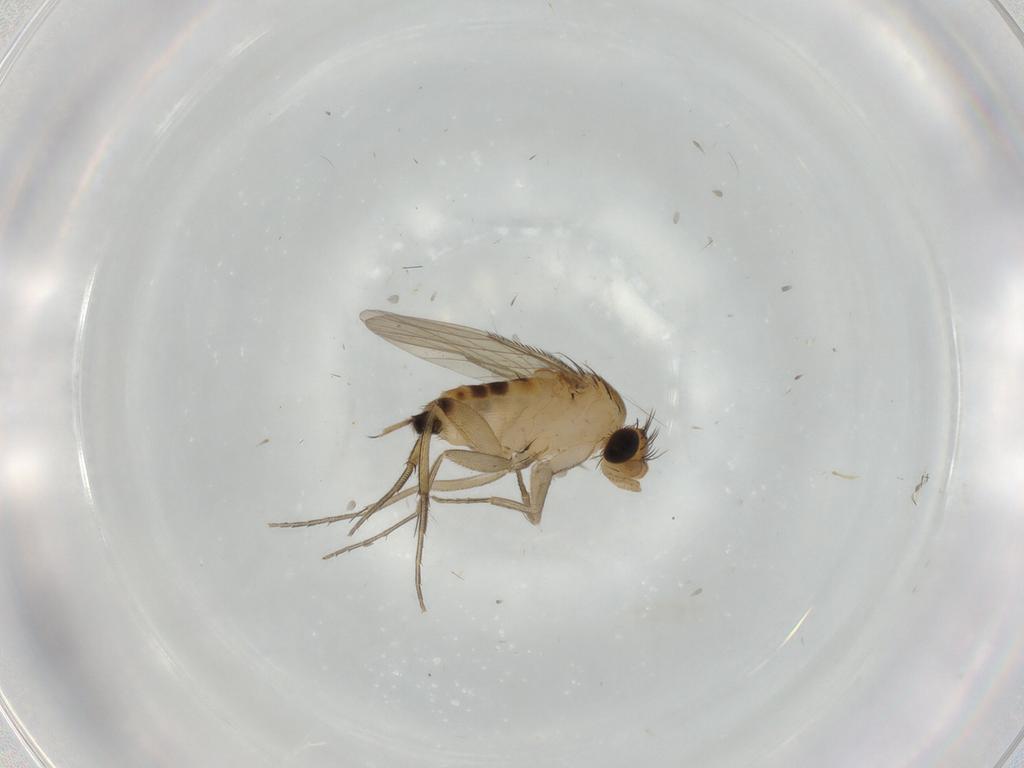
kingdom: Animalia
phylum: Arthropoda
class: Insecta
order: Diptera
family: Phoridae
